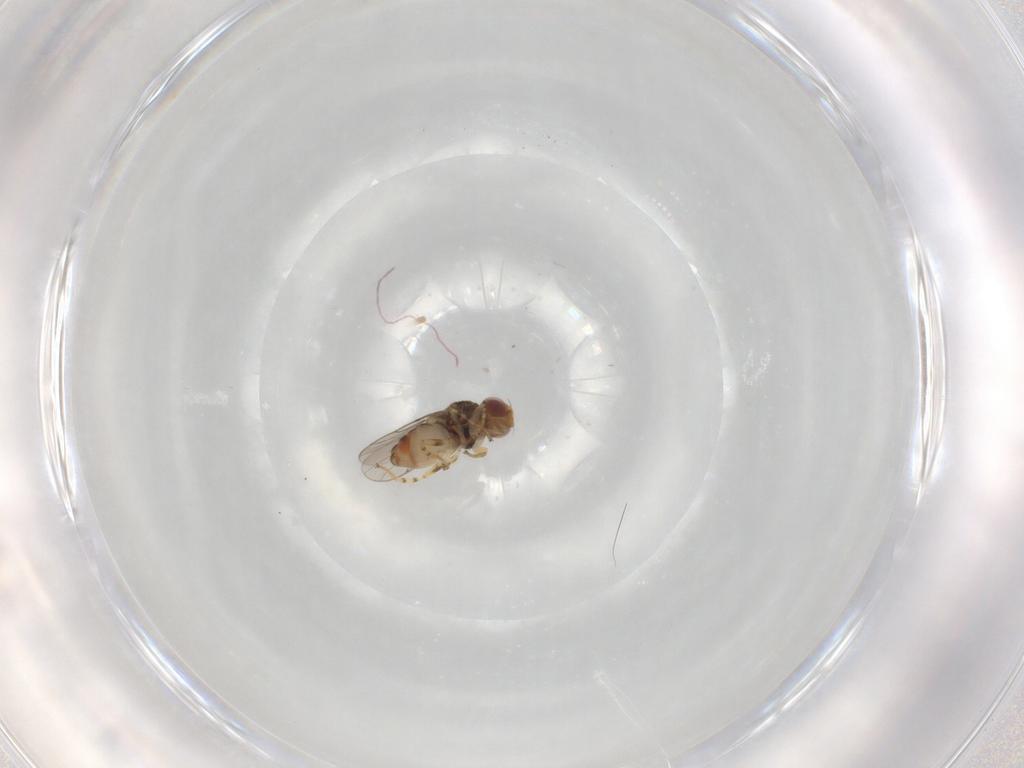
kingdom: Animalia
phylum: Arthropoda
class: Insecta
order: Diptera
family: Chloropidae
